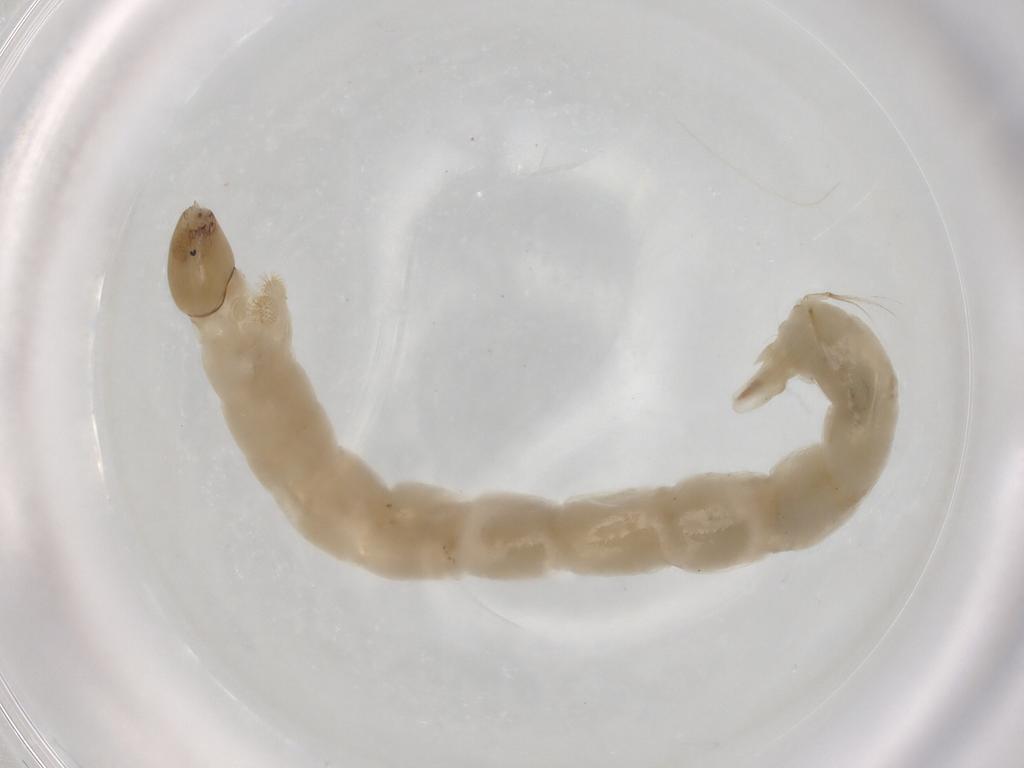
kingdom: Animalia
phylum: Arthropoda
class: Insecta
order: Diptera
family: Chironomidae
